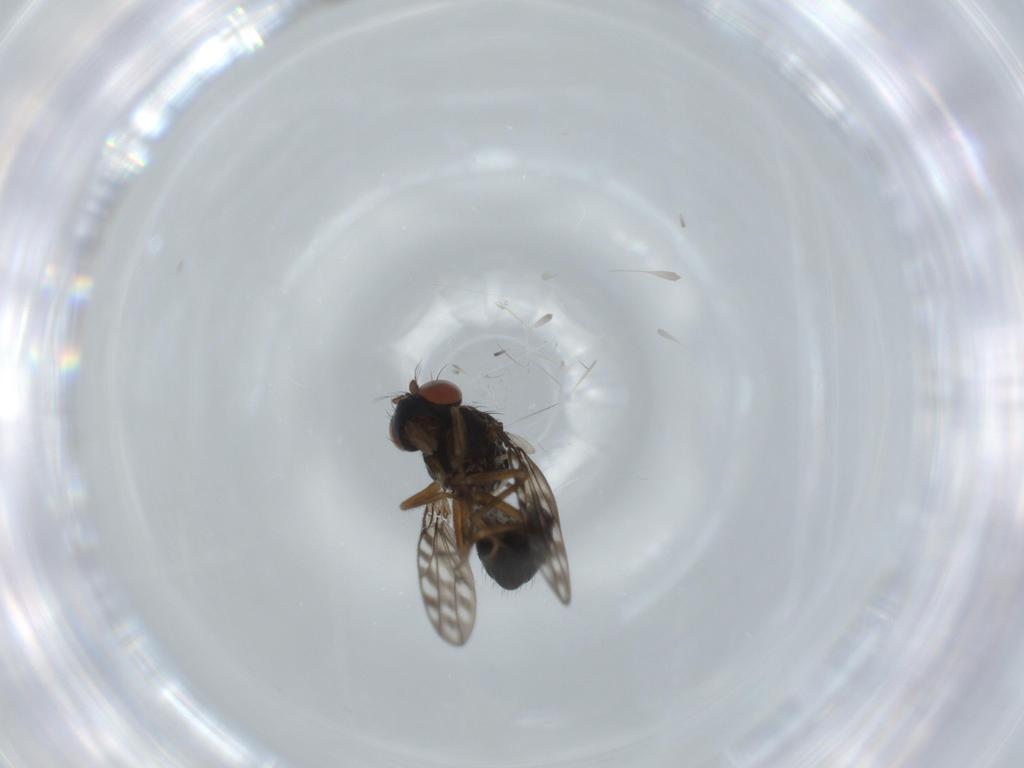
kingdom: Animalia
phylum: Arthropoda
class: Insecta
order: Diptera
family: Ephydridae
